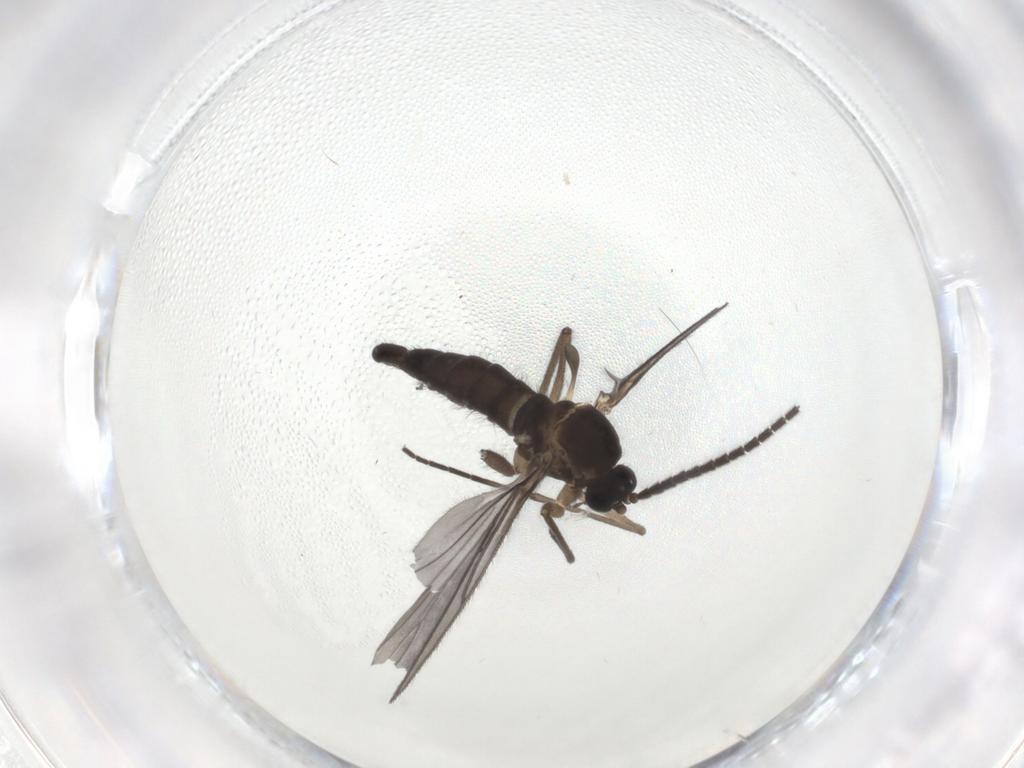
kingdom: Animalia
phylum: Arthropoda
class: Insecta
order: Diptera
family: Sciaridae
